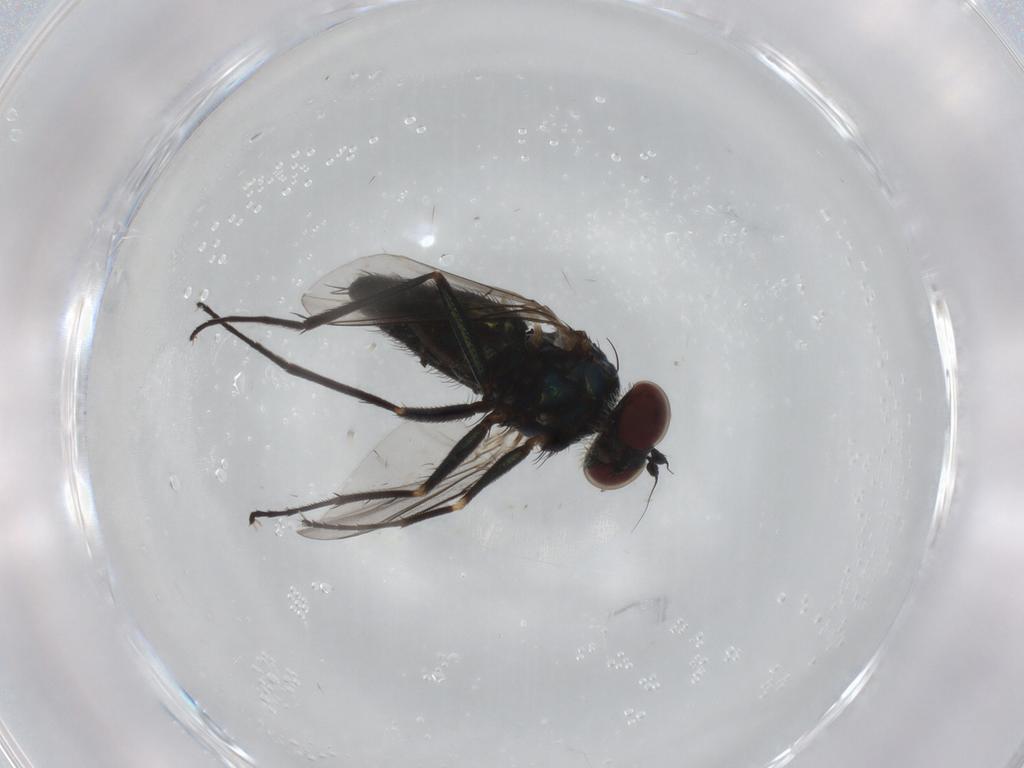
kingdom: Animalia
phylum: Arthropoda
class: Insecta
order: Diptera
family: Dolichopodidae
